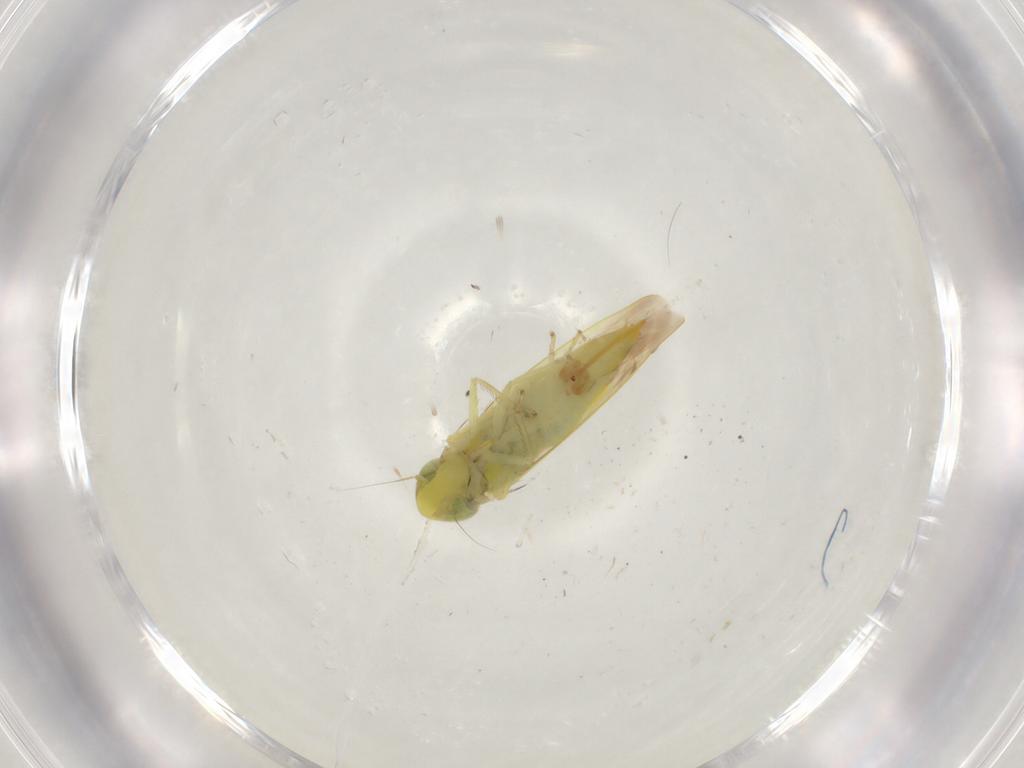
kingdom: Animalia
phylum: Arthropoda
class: Insecta
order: Hemiptera
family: Cicadellidae
